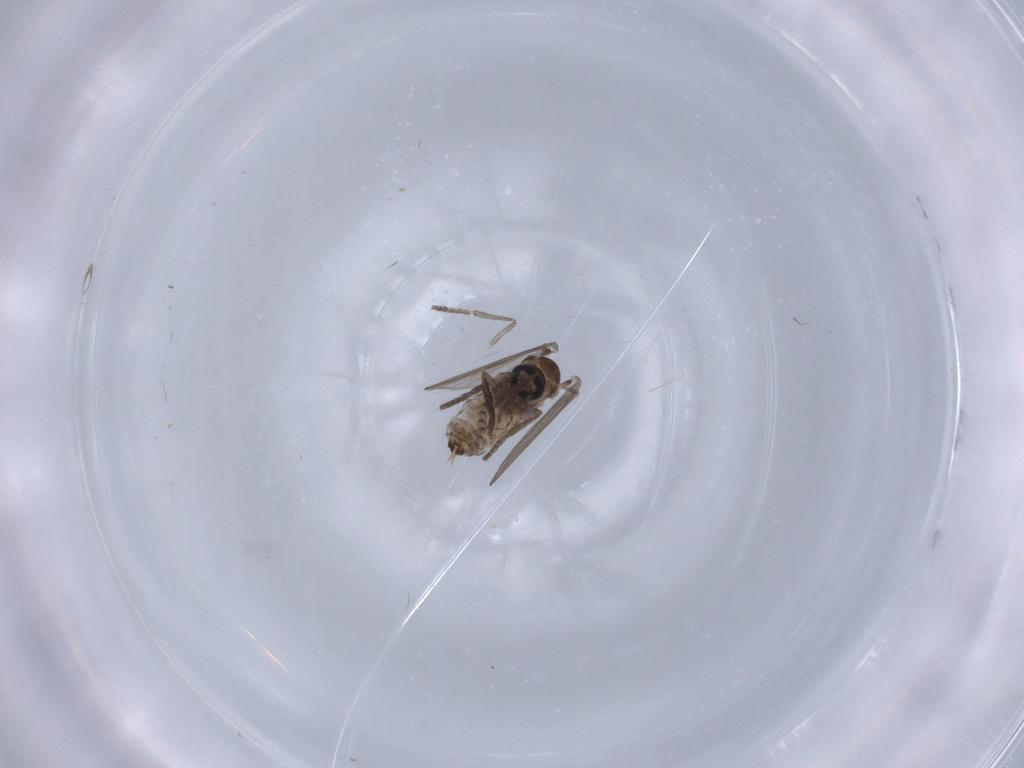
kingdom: Animalia
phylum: Arthropoda
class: Insecta
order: Diptera
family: Psychodidae
